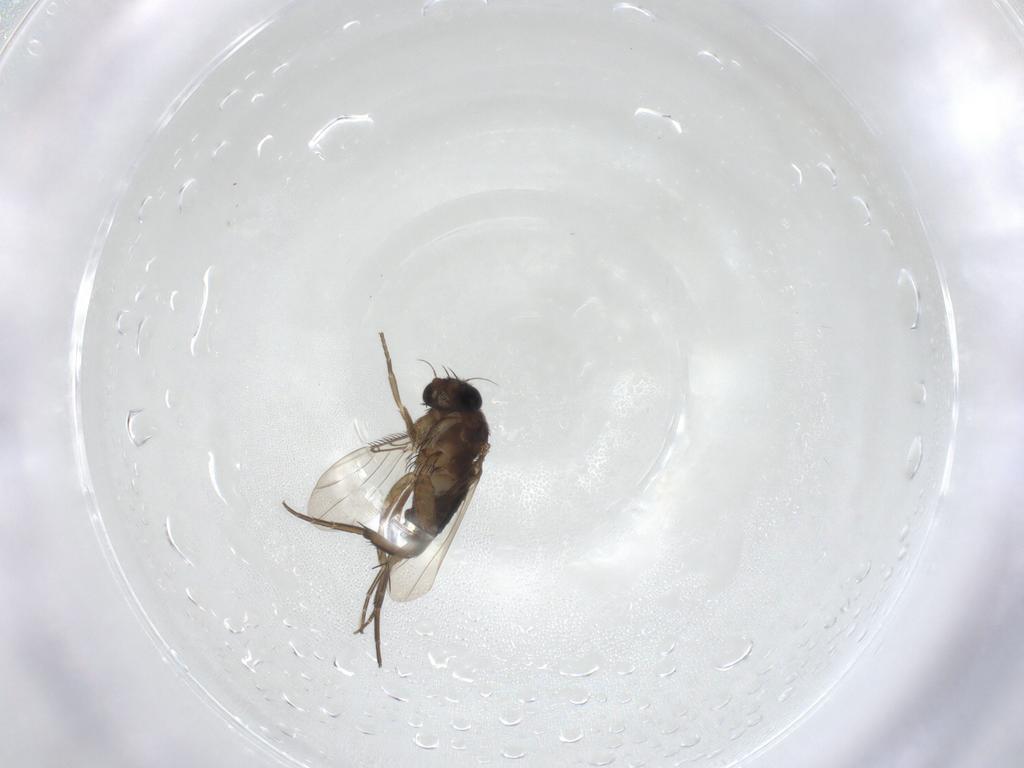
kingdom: Animalia
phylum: Arthropoda
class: Insecta
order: Diptera
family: Phoridae
